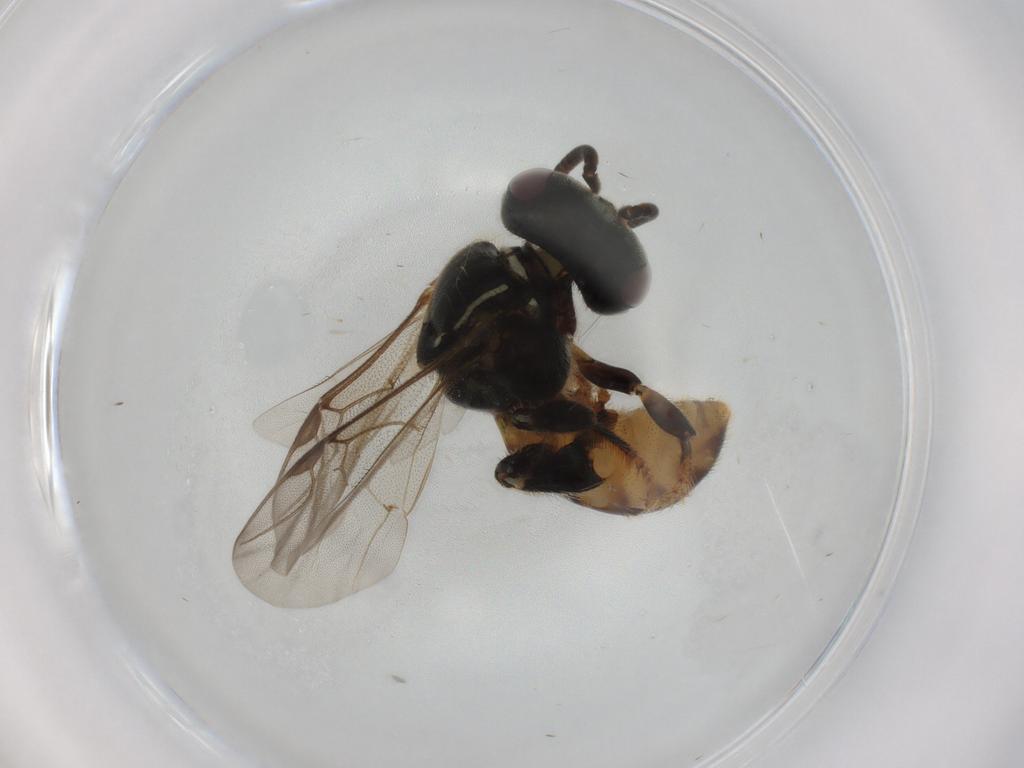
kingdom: Animalia
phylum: Arthropoda
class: Insecta
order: Hymenoptera
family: Apidae
